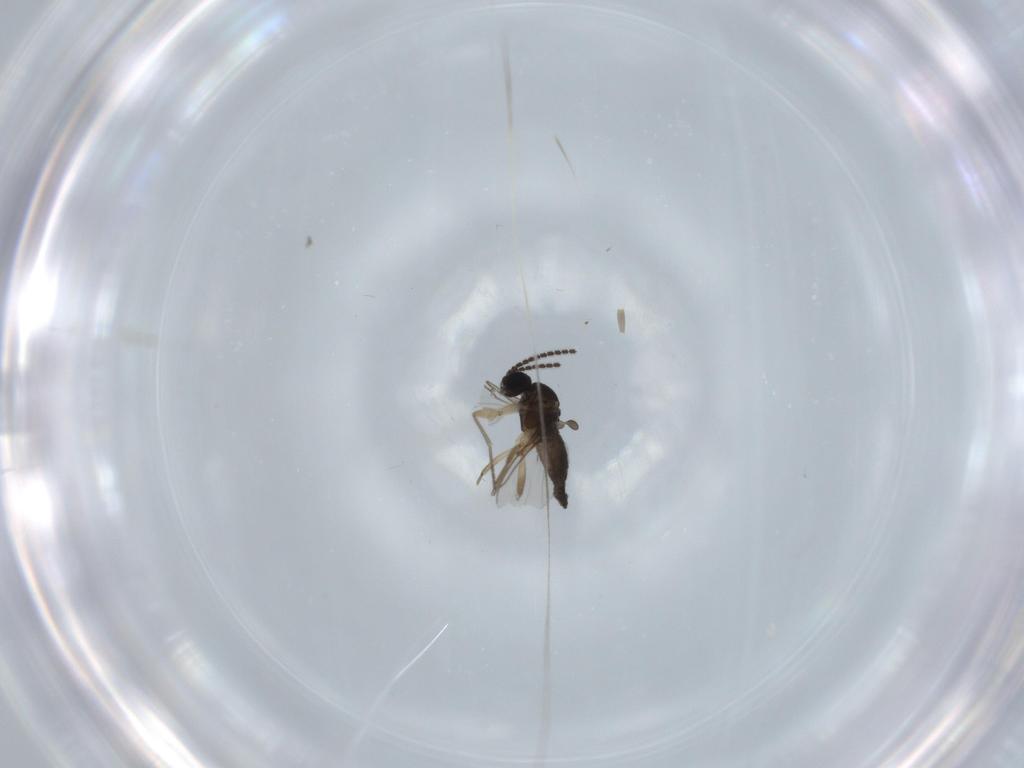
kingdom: Animalia
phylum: Arthropoda
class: Insecta
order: Diptera
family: Sciaridae
